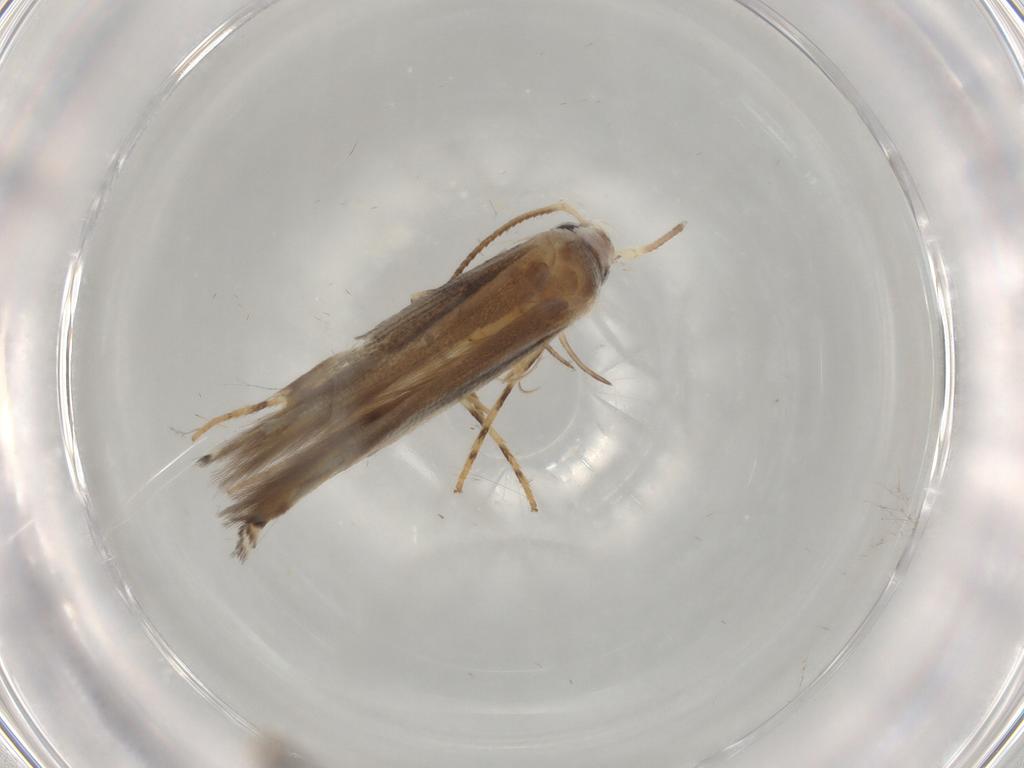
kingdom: Animalia
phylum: Arthropoda
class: Insecta
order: Lepidoptera
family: Gelechiidae
